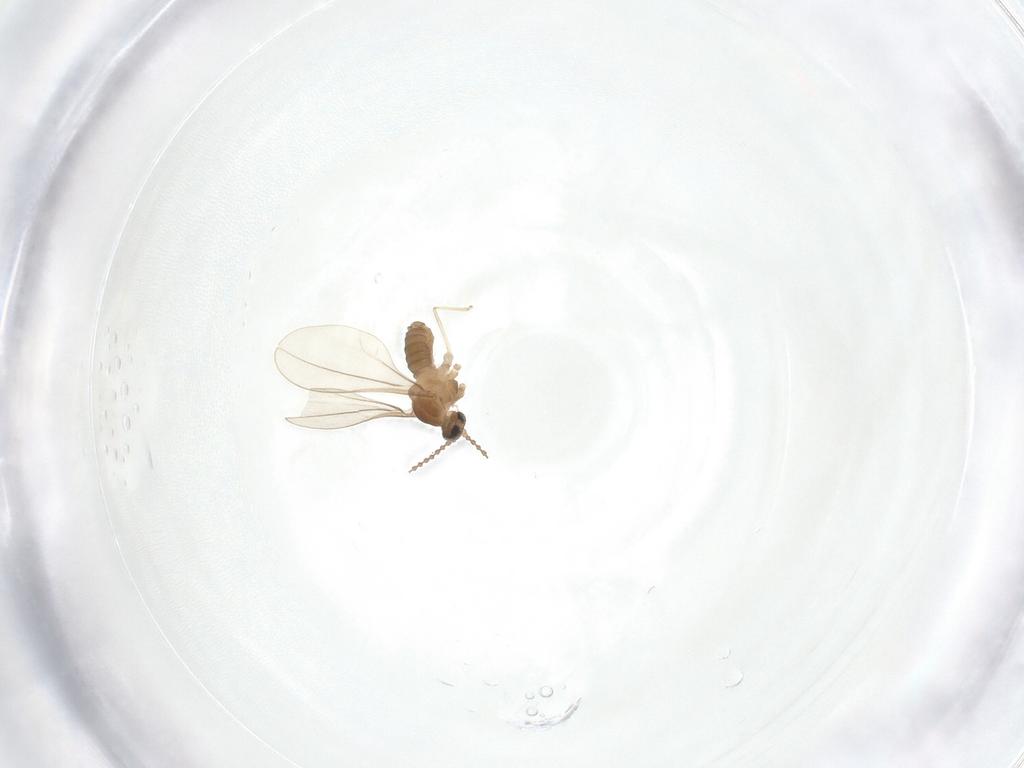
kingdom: Animalia
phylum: Arthropoda
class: Insecta
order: Diptera
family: Cecidomyiidae
